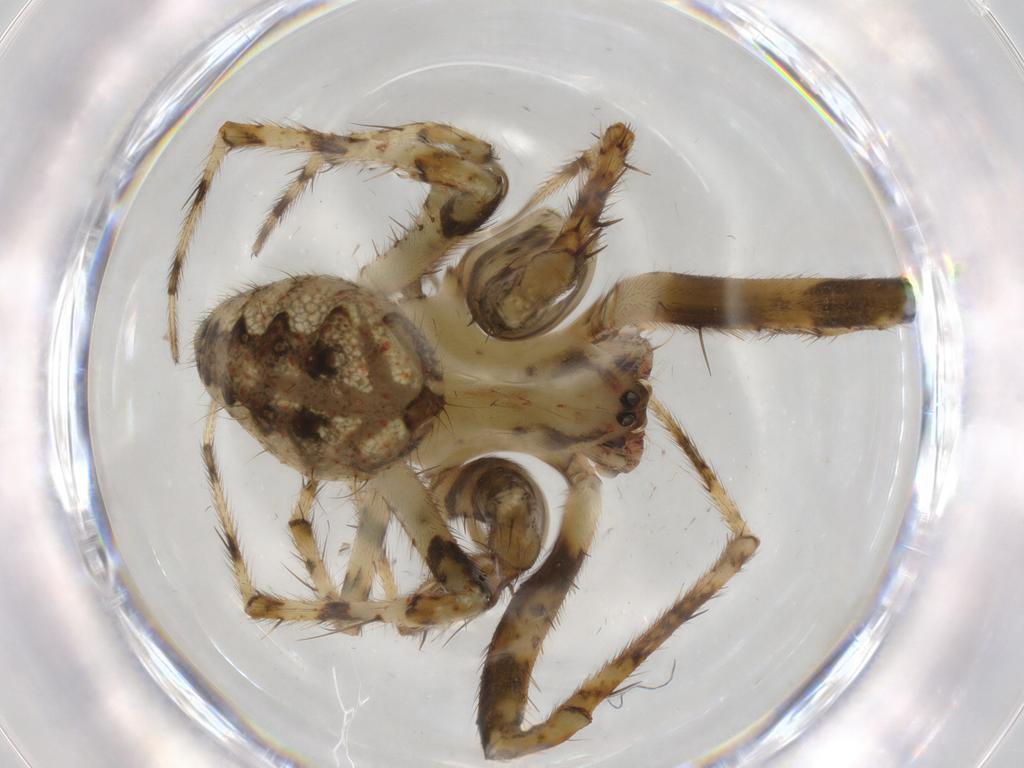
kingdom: Animalia
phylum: Arthropoda
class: Arachnida
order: Araneae
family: Araneidae
